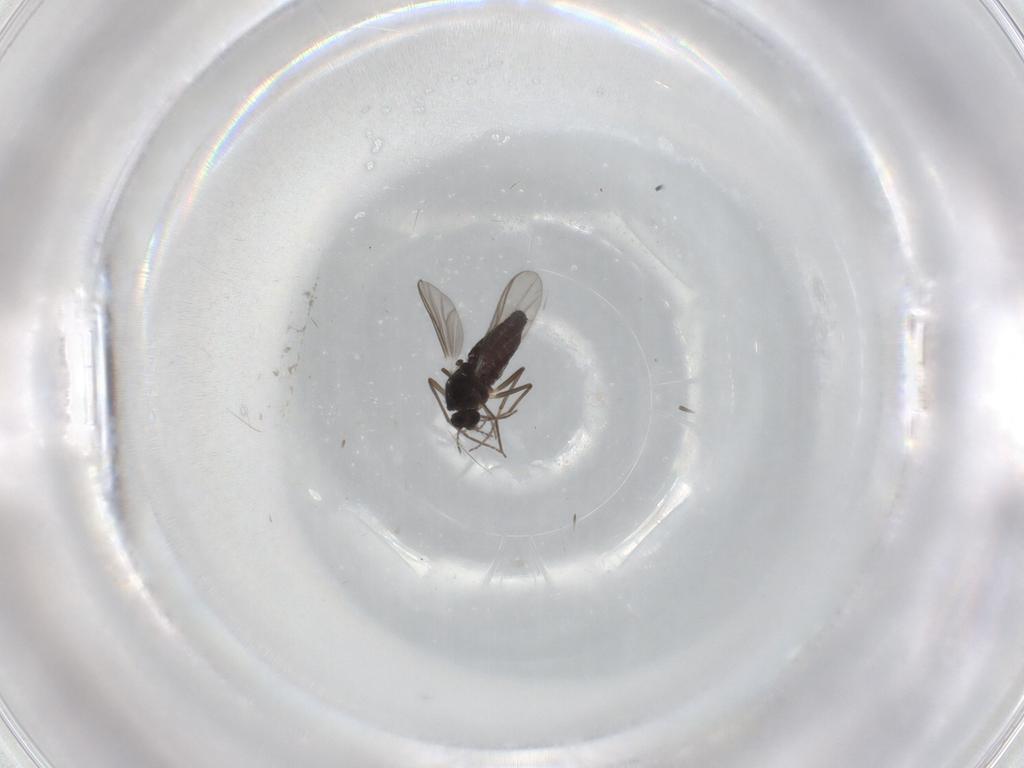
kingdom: Animalia
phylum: Arthropoda
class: Insecta
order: Diptera
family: Chironomidae
